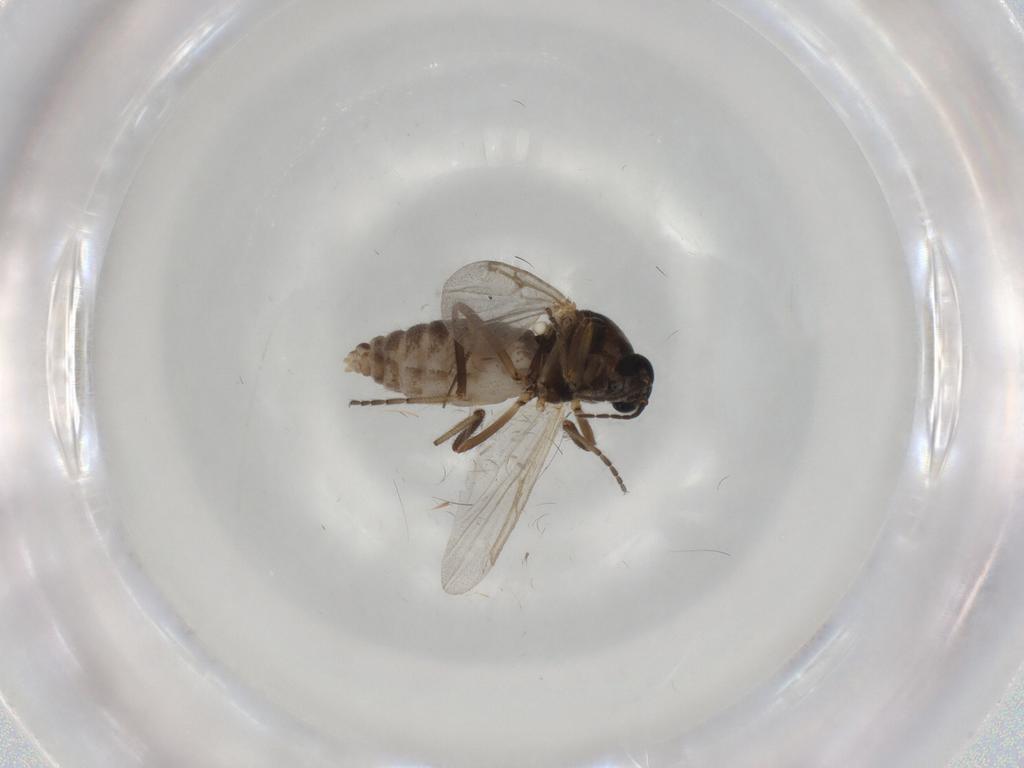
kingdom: Animalia
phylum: Arthropoda
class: Insecta
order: Diptera
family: Ceratopogonidae
